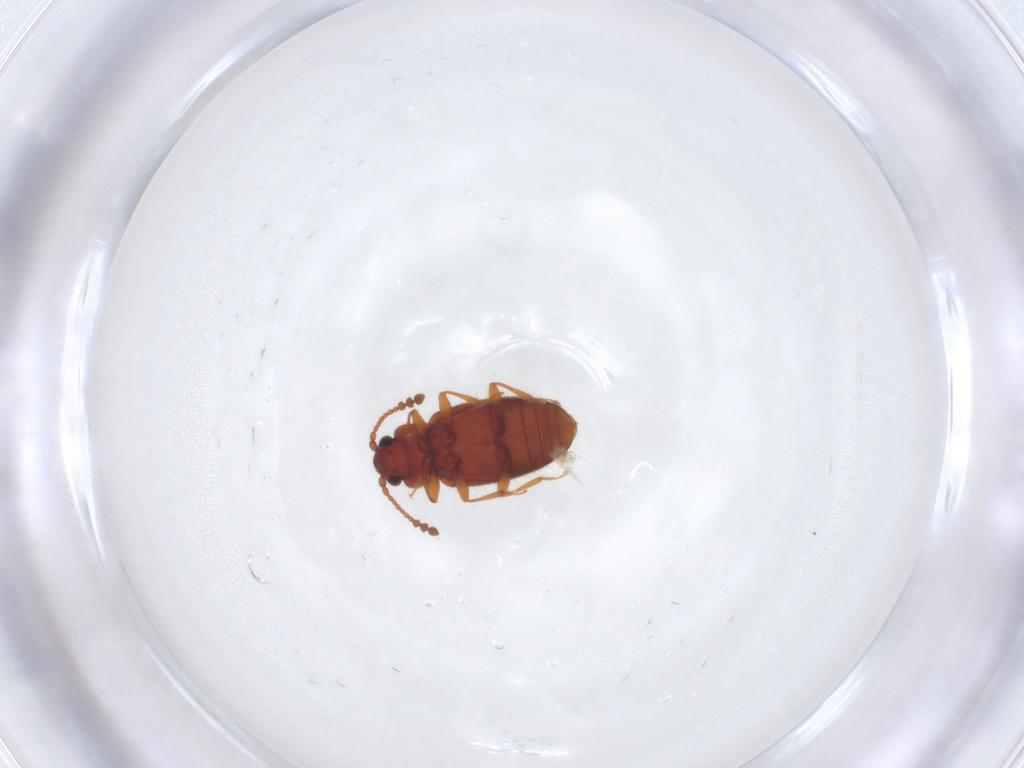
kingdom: Animalia
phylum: Arthropoda
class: Insecta
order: Coleoptera
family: Cryptophagidae
